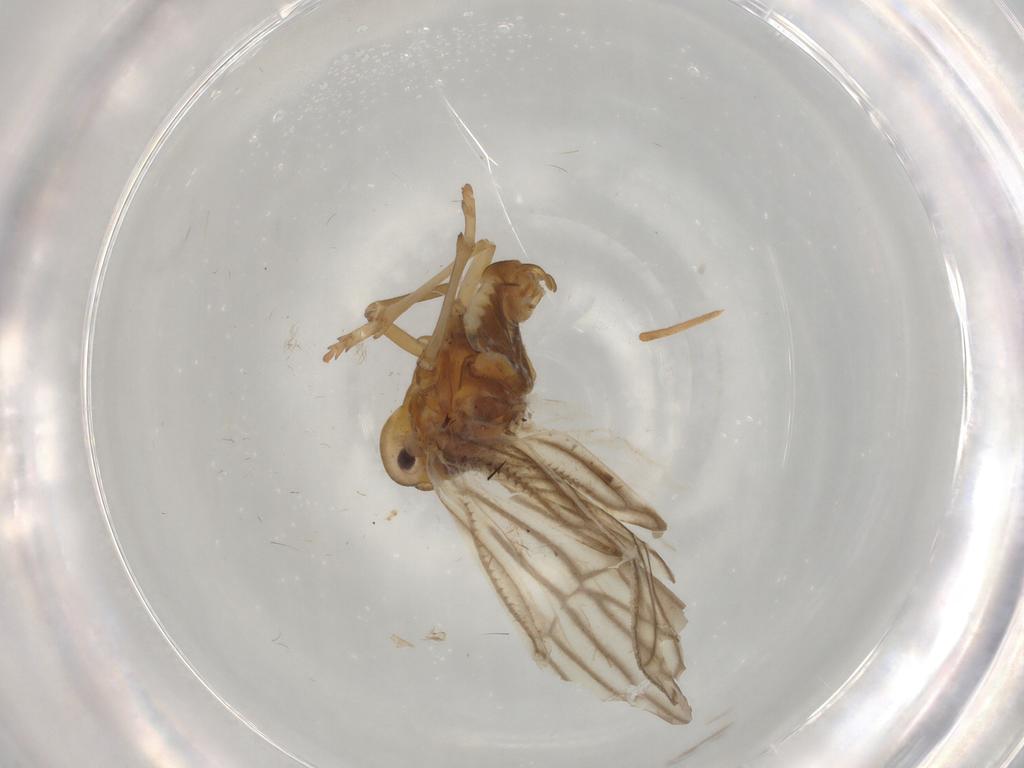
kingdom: Animalia
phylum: Arthropoda
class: Insecta
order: Hemiptera
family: Meenoplidae
